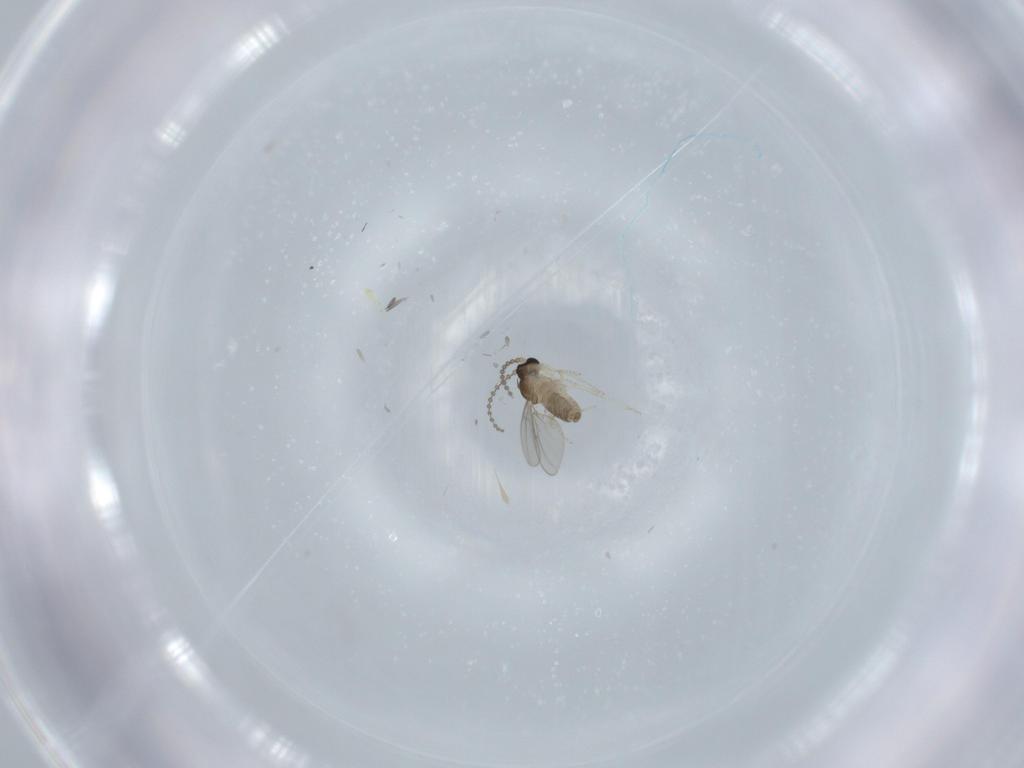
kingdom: Animalia
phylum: Arthropoda
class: Insecta
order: Diptera
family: Cecidomyiidae
